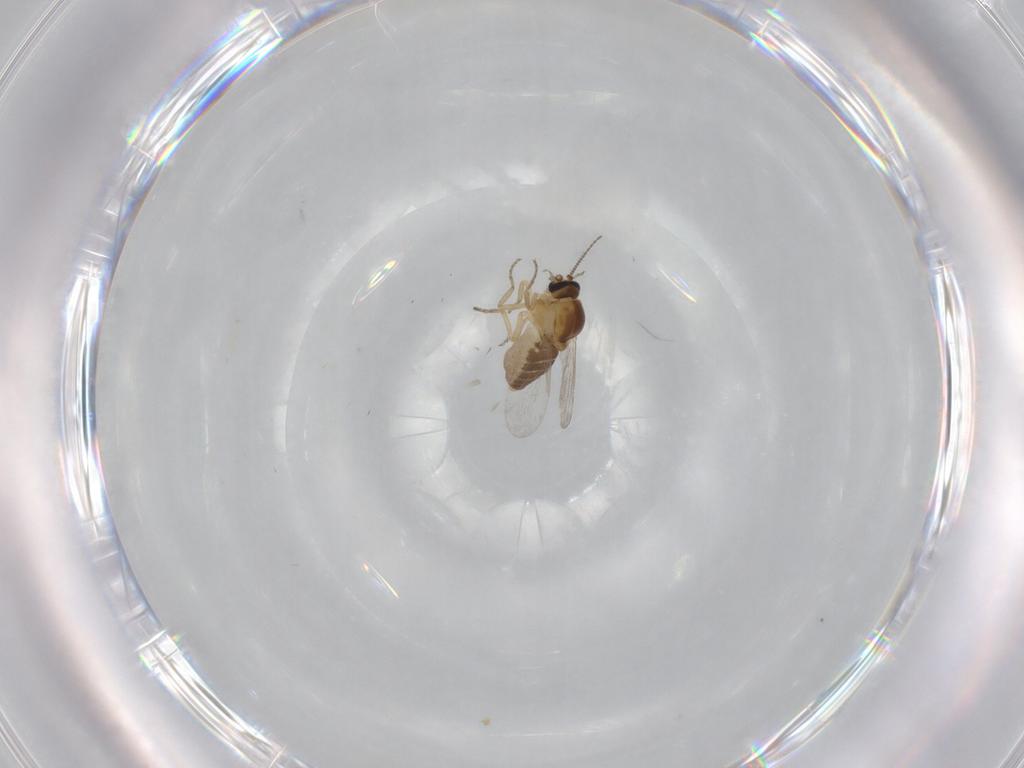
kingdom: Animalia
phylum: Arthropoda
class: Insecta
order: Diptera
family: Ceratopogonidae
